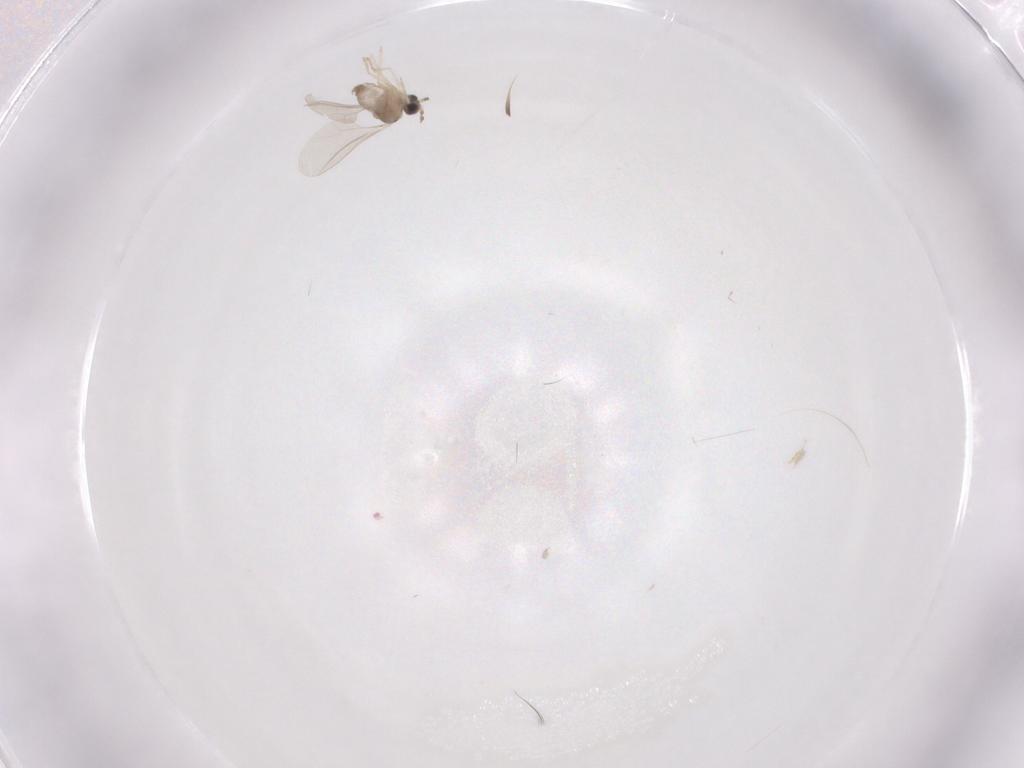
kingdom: Animalia
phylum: Arthropoda
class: Insecta
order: Diptera
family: Cecidomyiidae
